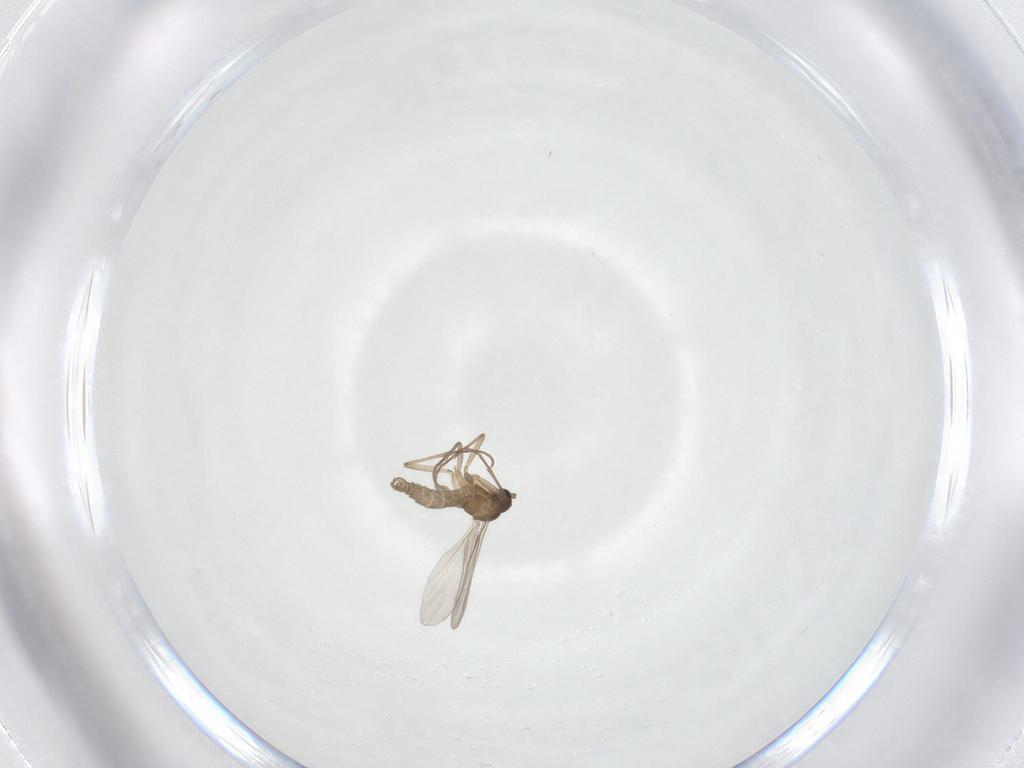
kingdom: Animalia
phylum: Arthropoda
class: Insecta
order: Diptera
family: Sciaridae
